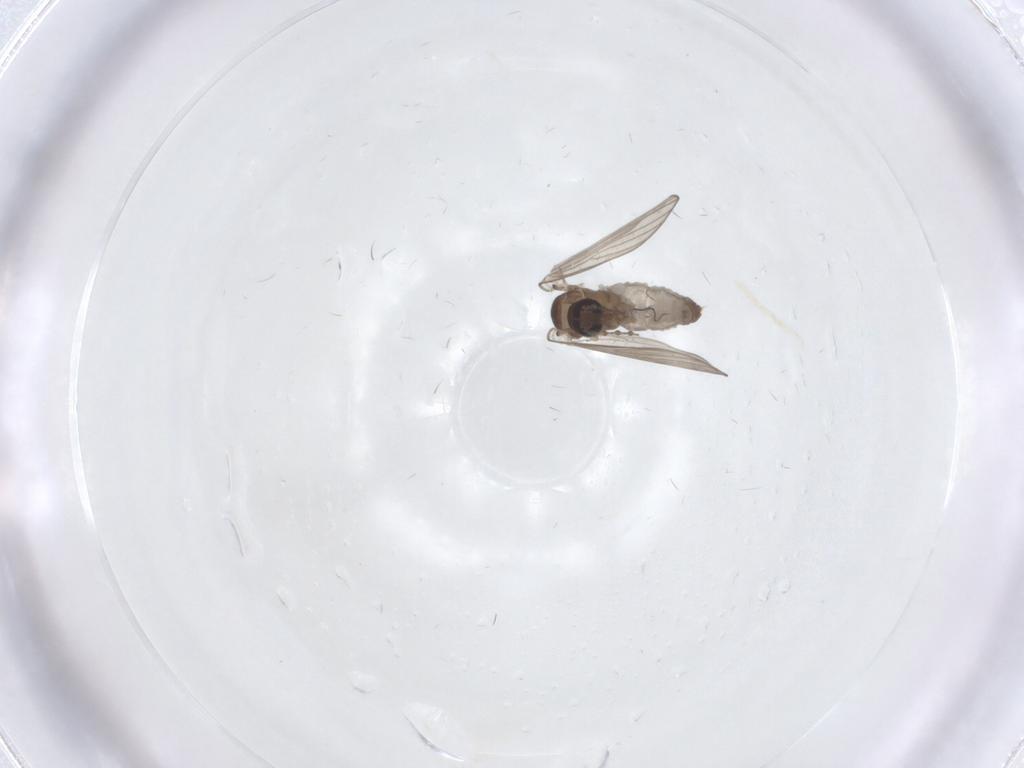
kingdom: Animalia
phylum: Arthropoda
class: Insecta
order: Diptera
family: Psychodidae
